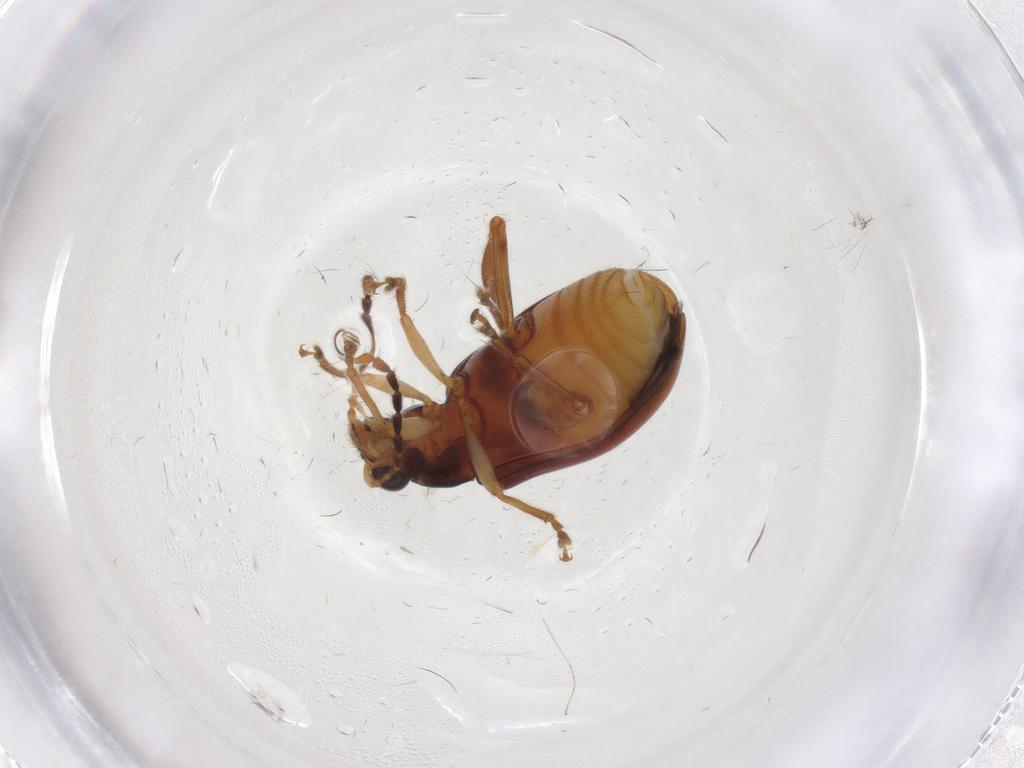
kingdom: Animalia
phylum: Arthropoda
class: Insecta
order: Coleoptera
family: Chrysomelidae
